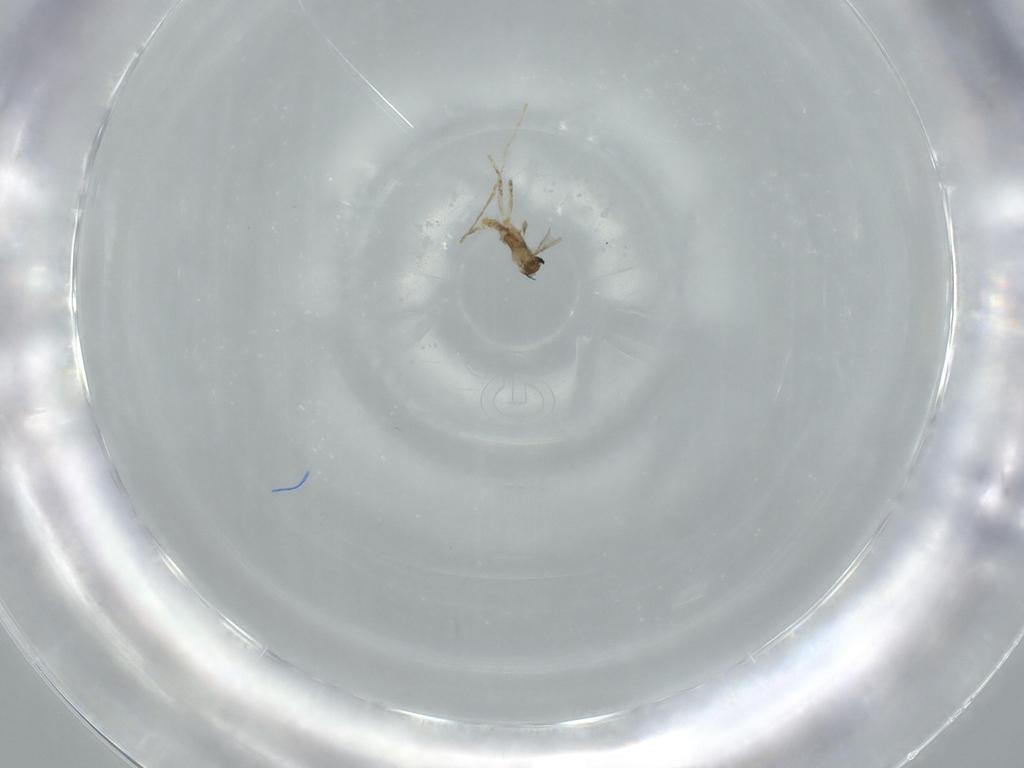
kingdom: Animalia
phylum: Arthropoda
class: Insecta
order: Diptera
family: Cecidomyiidae
